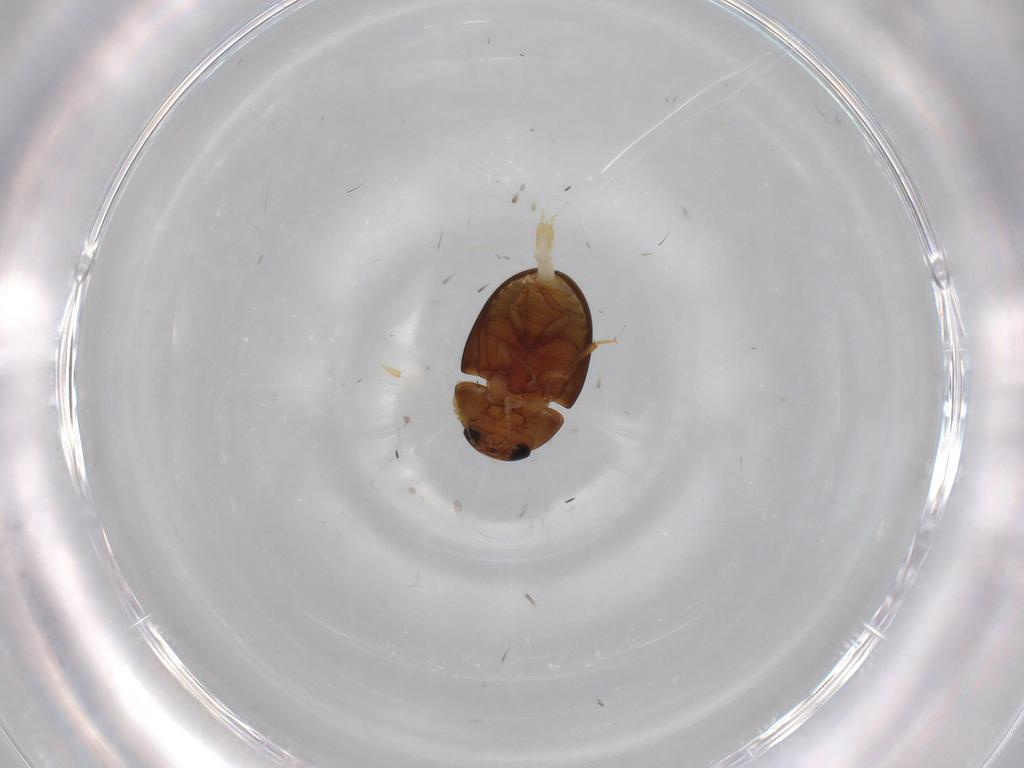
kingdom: Animalia
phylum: Arthropoda
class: Insecta
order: Coleoptera
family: Phalacridae
